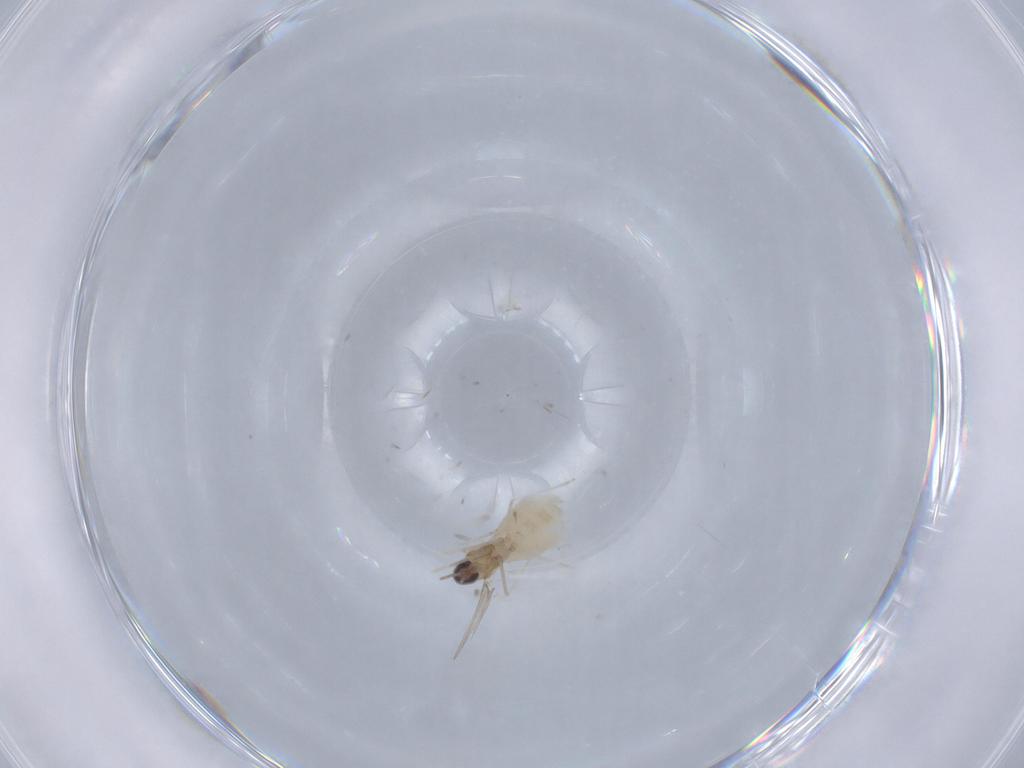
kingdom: Animalia
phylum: Arthropoda
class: Insecta
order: Diptera
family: Cecidomyiidae
